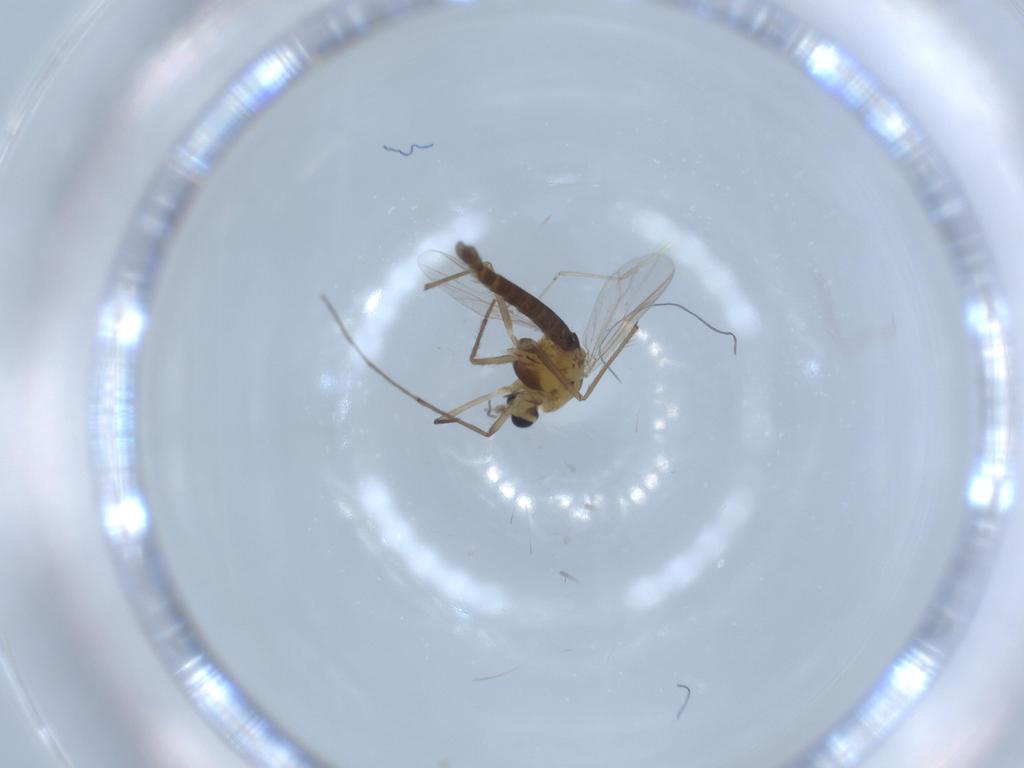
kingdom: Animalia
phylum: Arthropoda
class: Insecta
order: Diptera
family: Chironomidae
